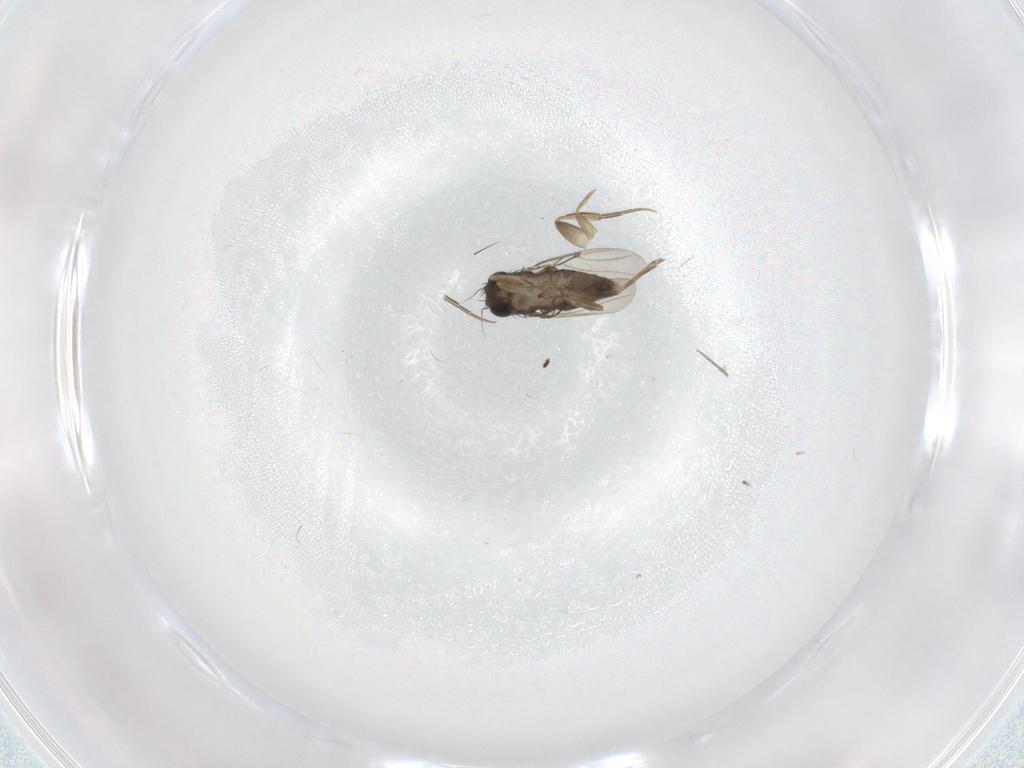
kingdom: Animalia
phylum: Arthropoda
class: Insecta
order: Diptera
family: Phoridae
